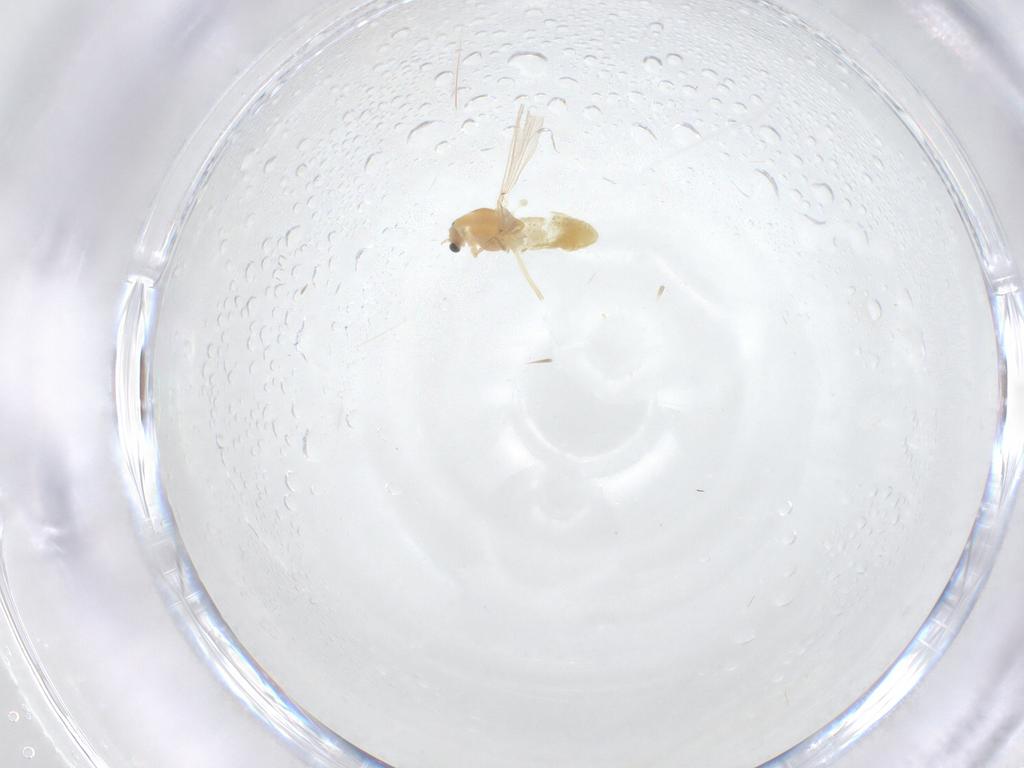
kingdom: Animalia
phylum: Arthropoda
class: Insecta
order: Diptera
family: Chironomidae
